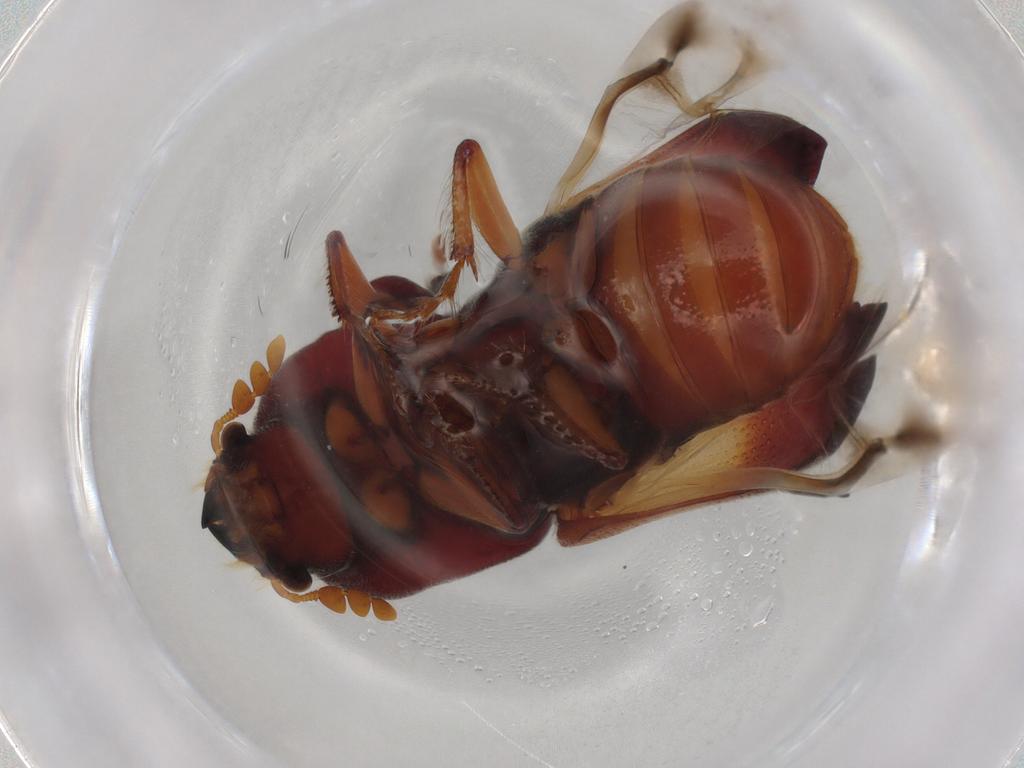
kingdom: Animalia
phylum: Arthropoda
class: Insecta
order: Coleoptera
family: Bostrichidae
